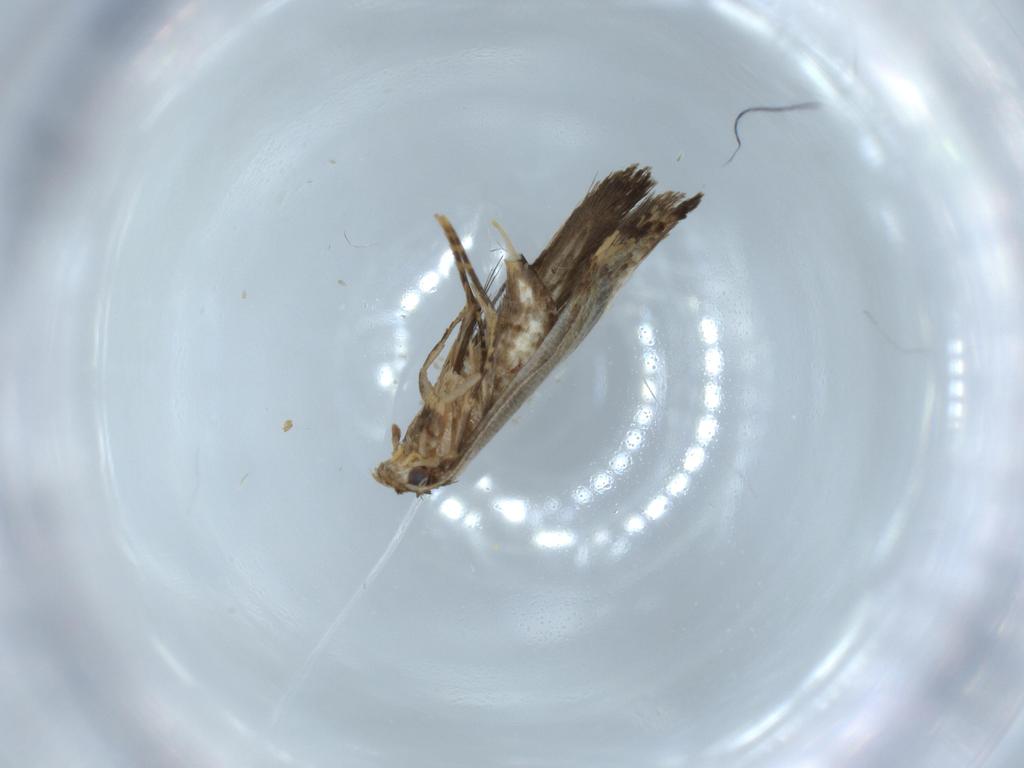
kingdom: Animalia
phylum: Arthropoda
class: Insecta
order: Lepidoptera
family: Tineidae
